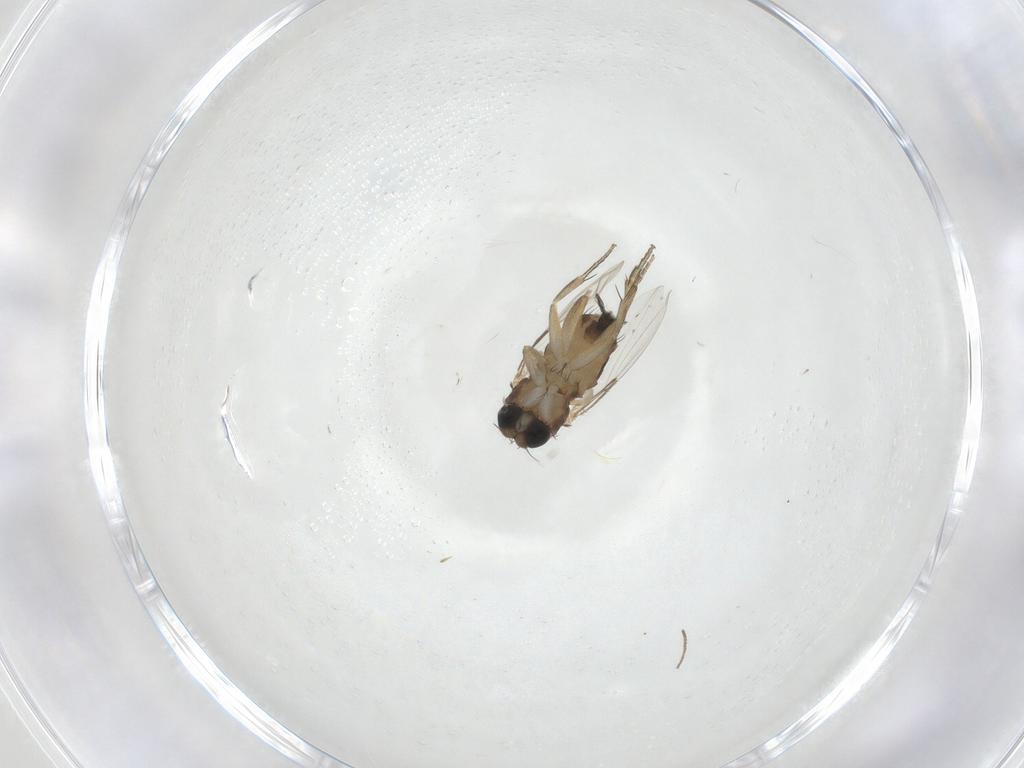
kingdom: Animalia
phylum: Arthropoda
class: Insecta
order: Diptera
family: Phoridae
